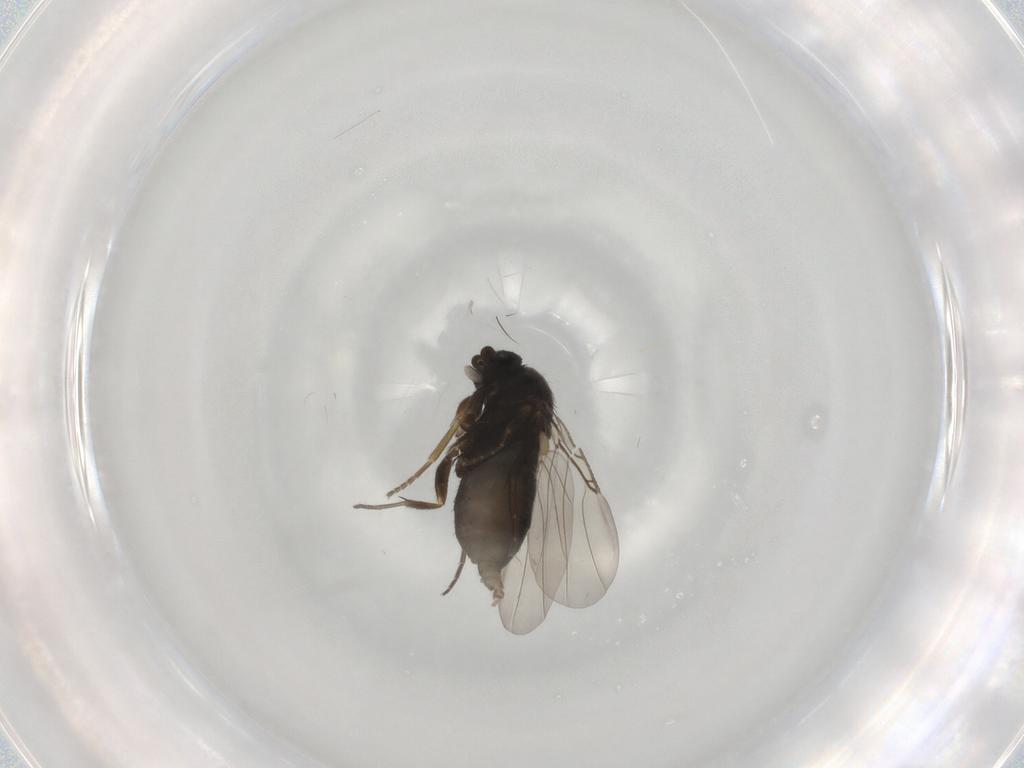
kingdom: Animalia
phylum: Arthropoda
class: Insecta
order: Diptera
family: Phoridae
